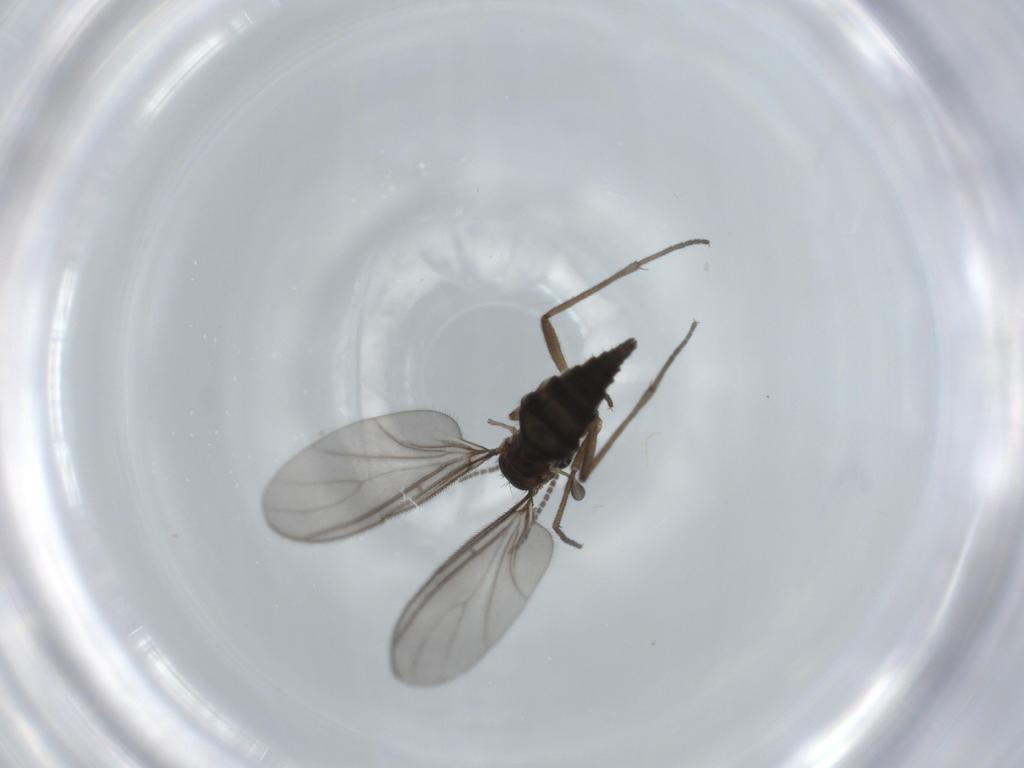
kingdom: Animalia
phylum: Arthropoda
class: Insecta
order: Diptera
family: Sciaridae
